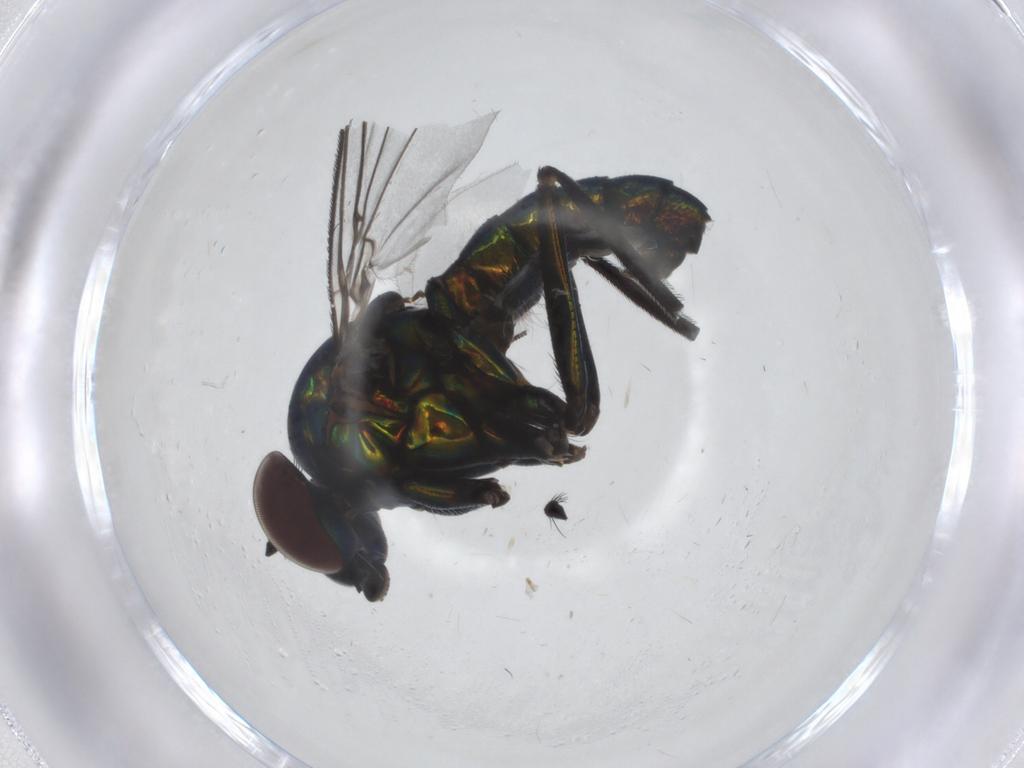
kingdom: Animalia
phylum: Arthropoda
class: Insecta
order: Diptera
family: Dolichopodidae
